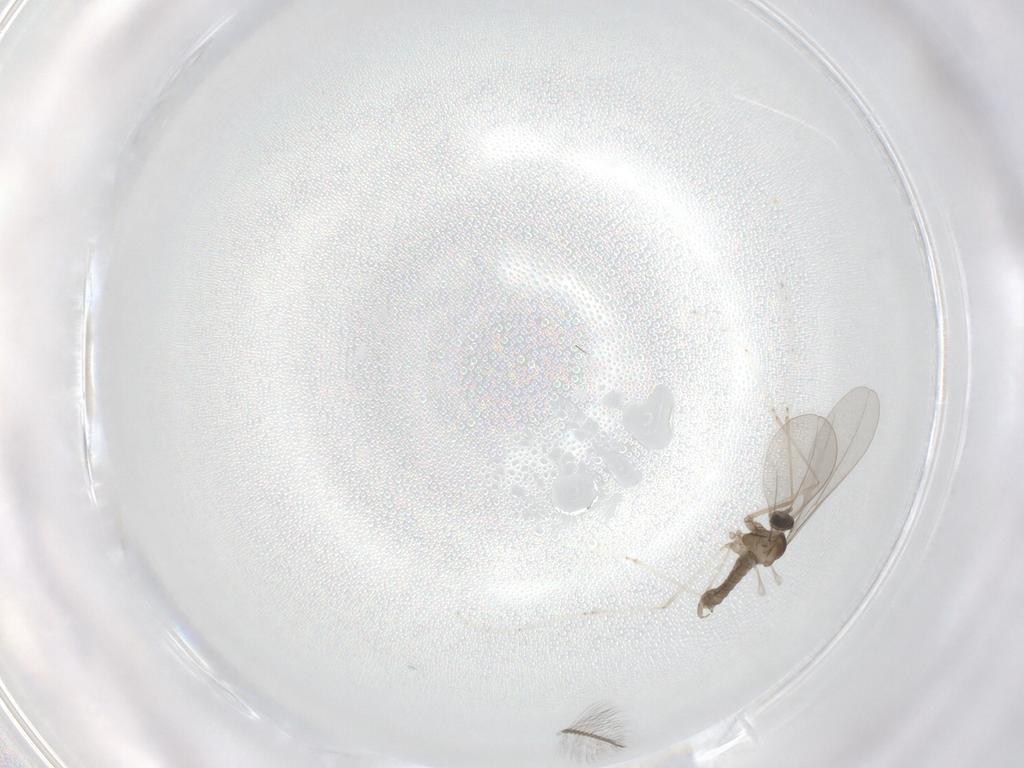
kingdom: Animalia
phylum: Arthropoda
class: Insecta
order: Diptera
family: Cecidomyiidae
